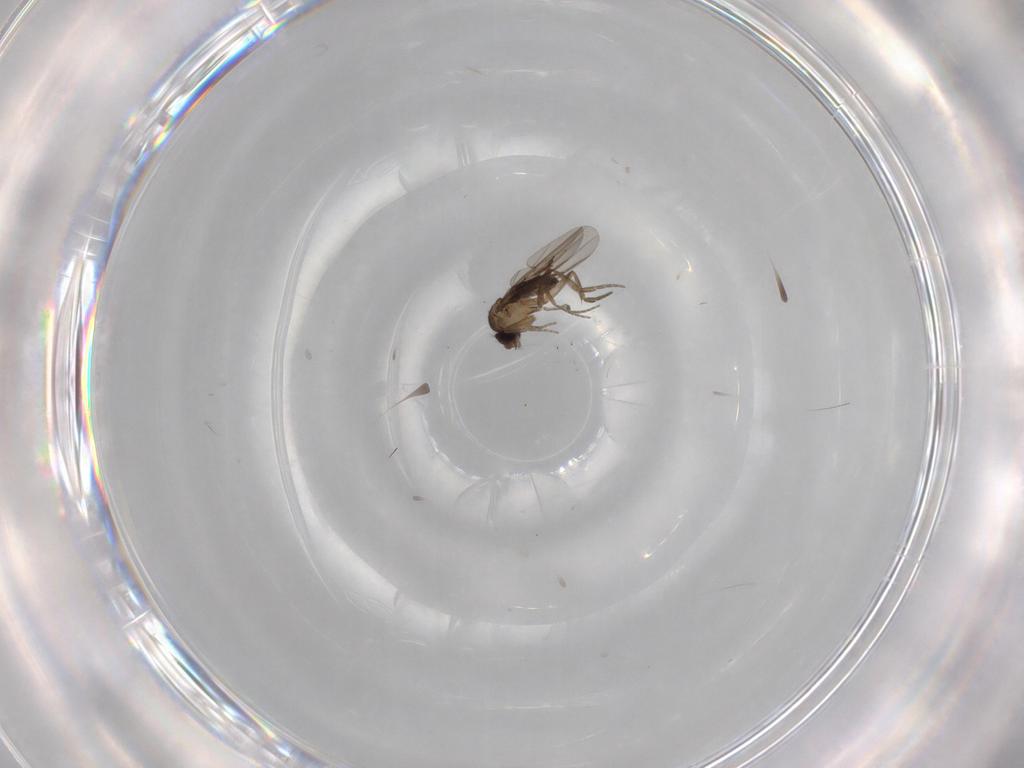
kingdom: Animalia
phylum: Arthropoda
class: Insecta
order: Diptera
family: Phoridae
